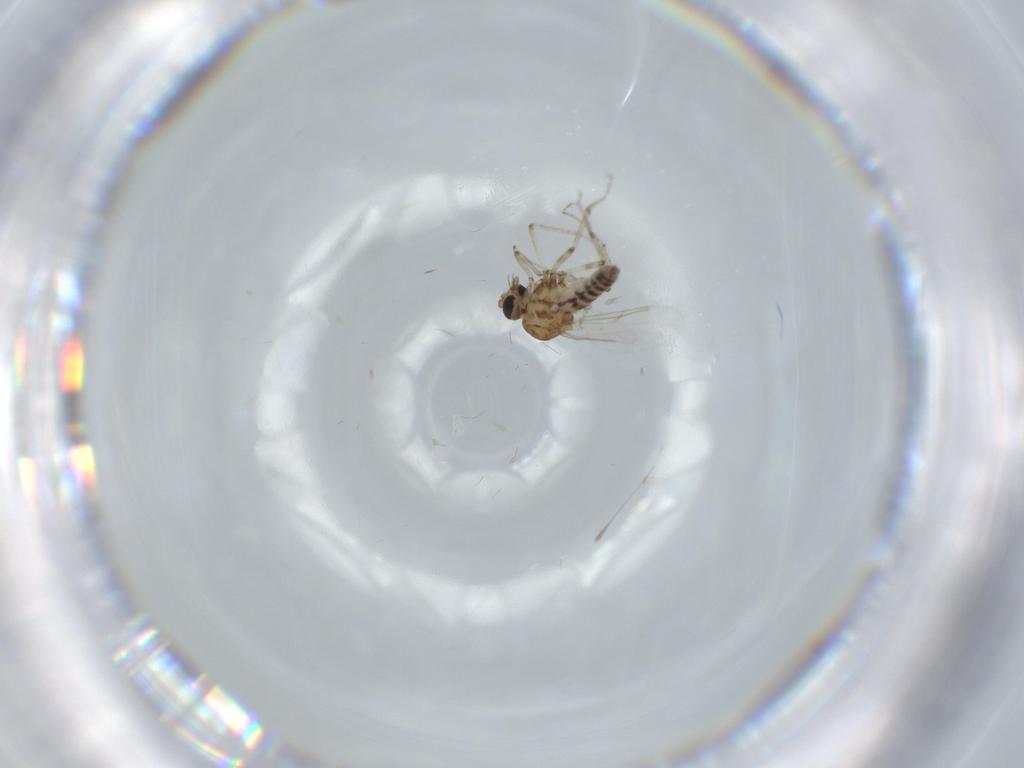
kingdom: Animalia
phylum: Arthropoda
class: Insecta
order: Diptera
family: Ceratopogonidae
